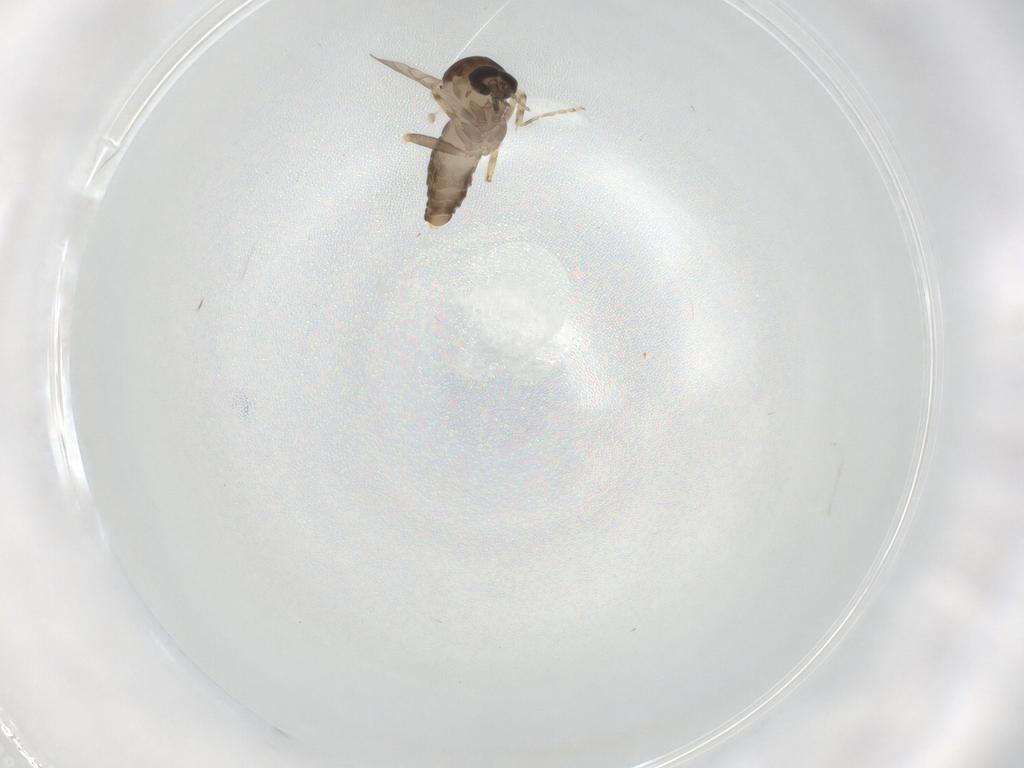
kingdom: Animalia
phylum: Arthropoda
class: Insecta
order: Diptera
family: Ceratopogonidae
